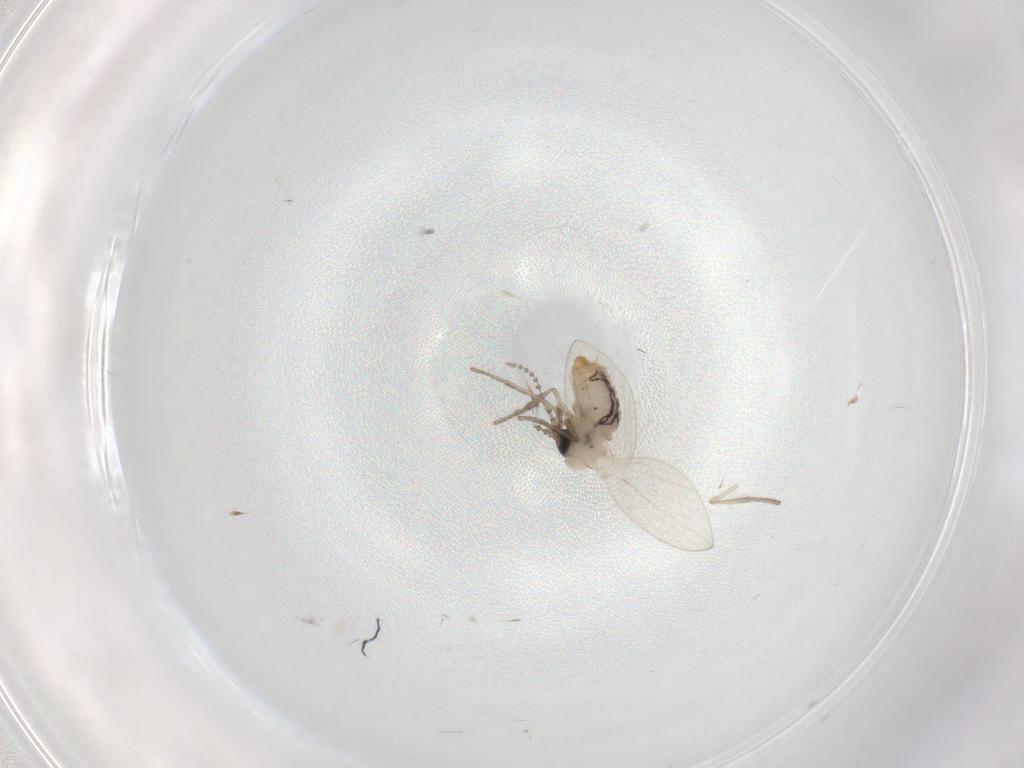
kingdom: Animalia
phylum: Arthropoda
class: Insecta
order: Diptera
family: Psychodidae
